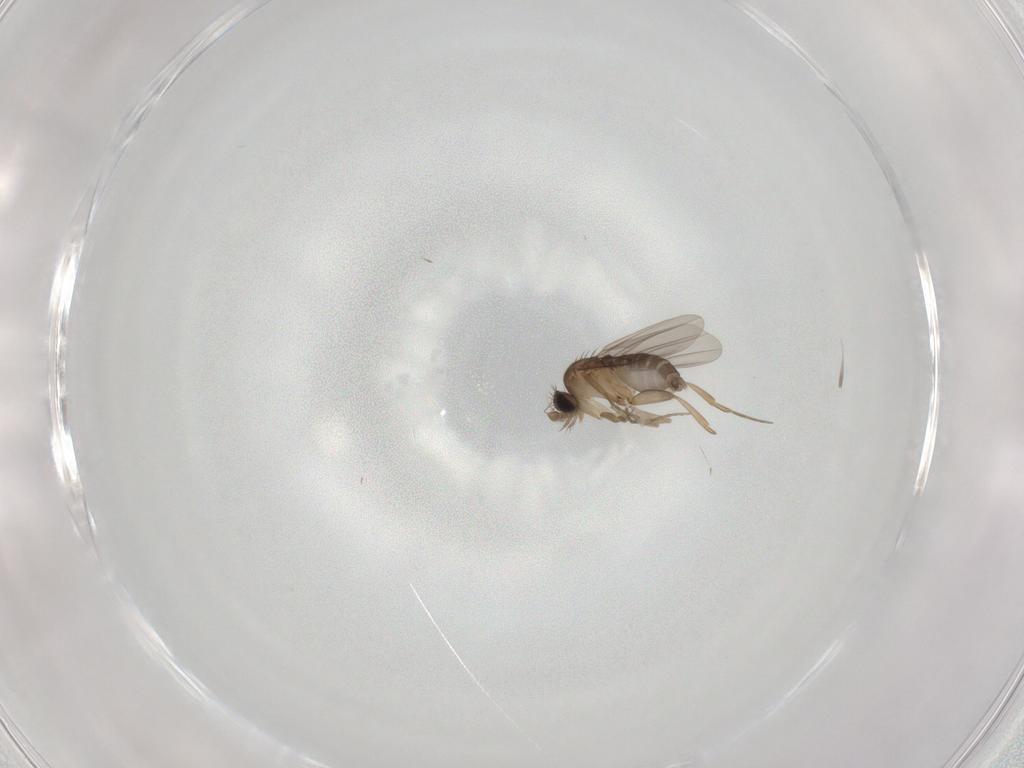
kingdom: Animalia
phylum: Arthropoda
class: Insecta
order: Diptera
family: Phoridae
